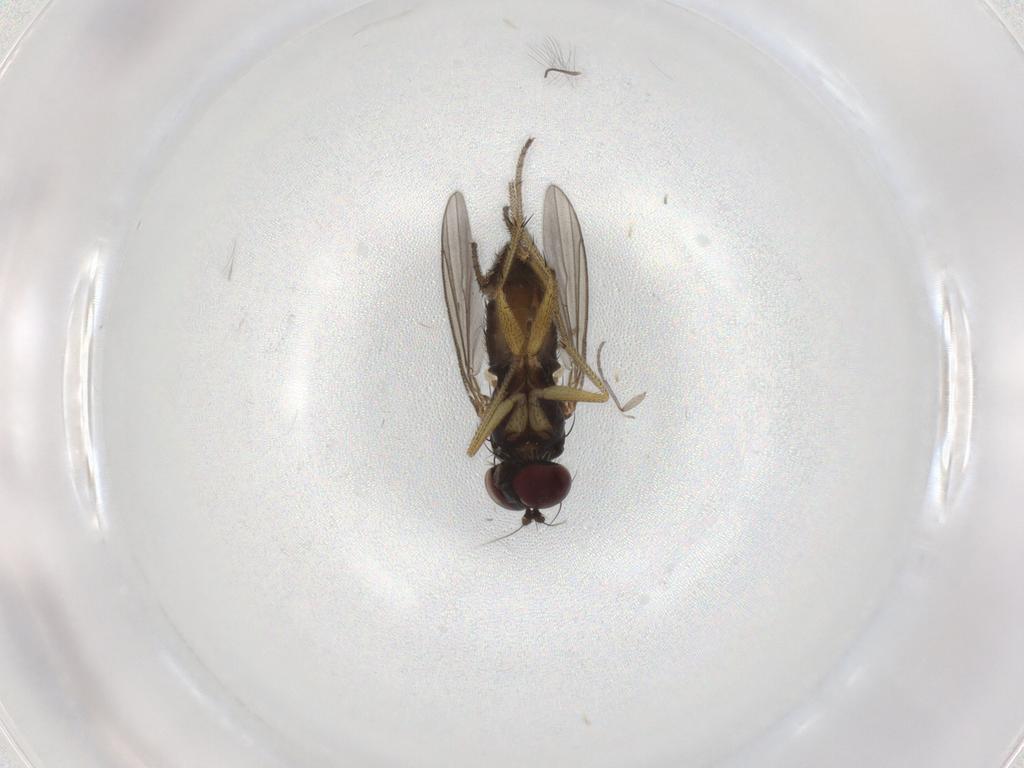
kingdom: Animalia
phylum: Arthropoda
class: Insecta
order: Diptera
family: Sciaridae
